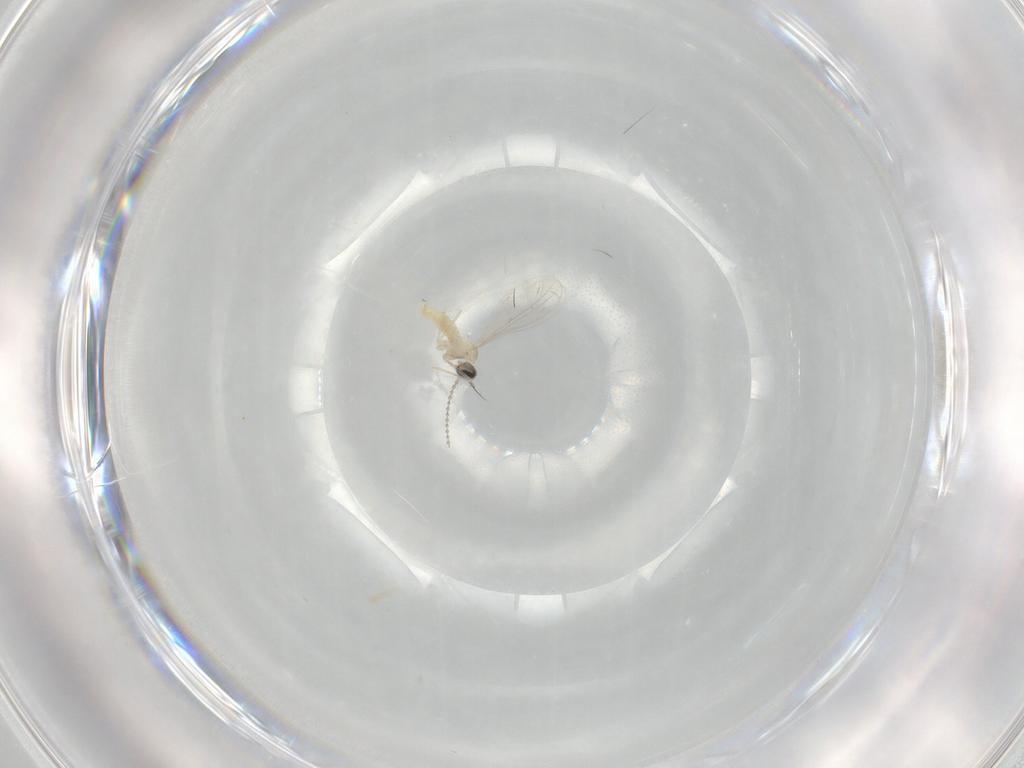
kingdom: Animalia
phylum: Arthropoda
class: Insecta
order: Diptera
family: Cecidomyiidae
